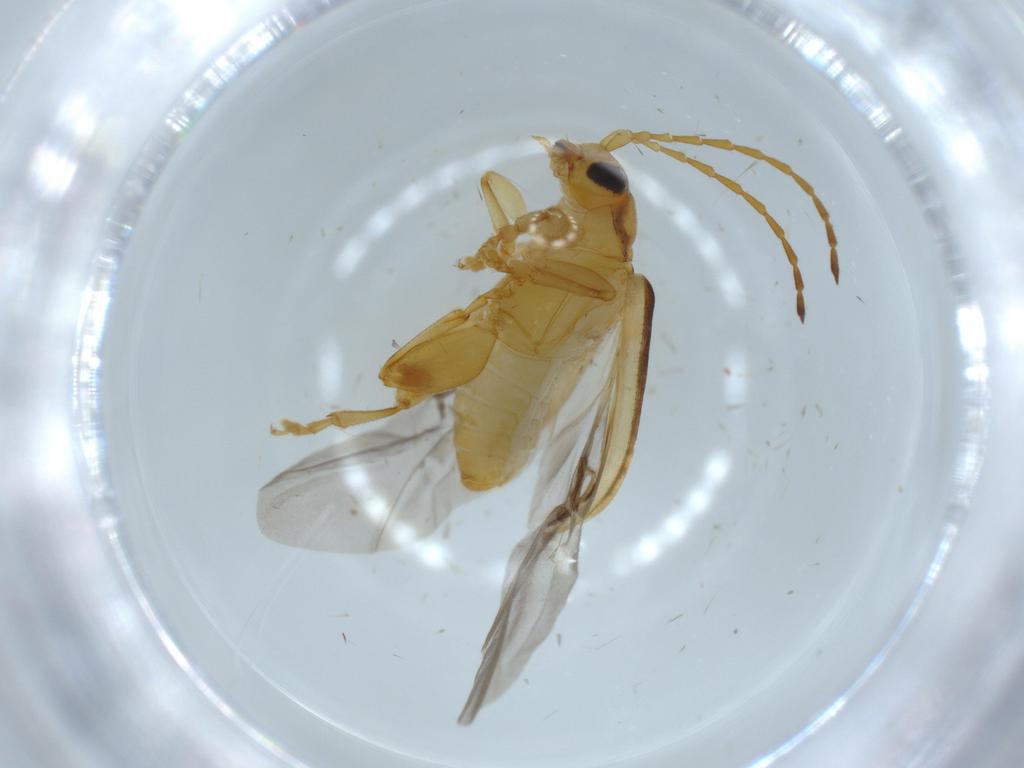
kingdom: Animalia
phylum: Arthropoda
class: Insecta
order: Coleoptera
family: Chrysomelidae
